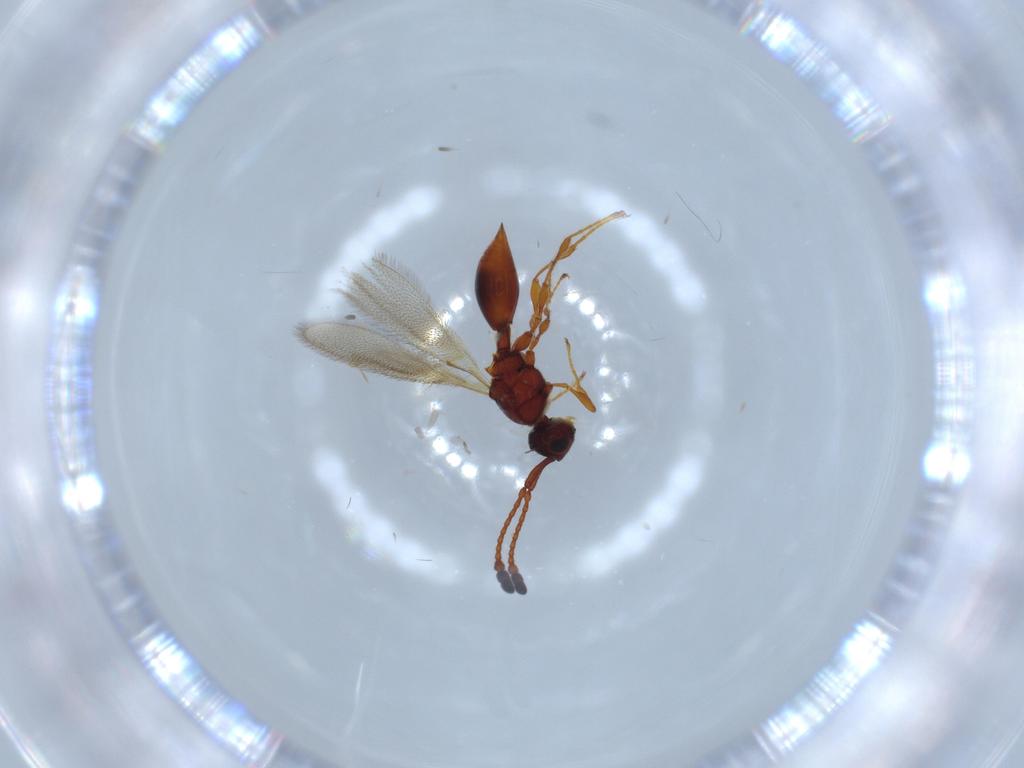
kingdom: Animalia
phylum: Arthropoda
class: Insecta
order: Hymenoptera
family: Diapriidae
